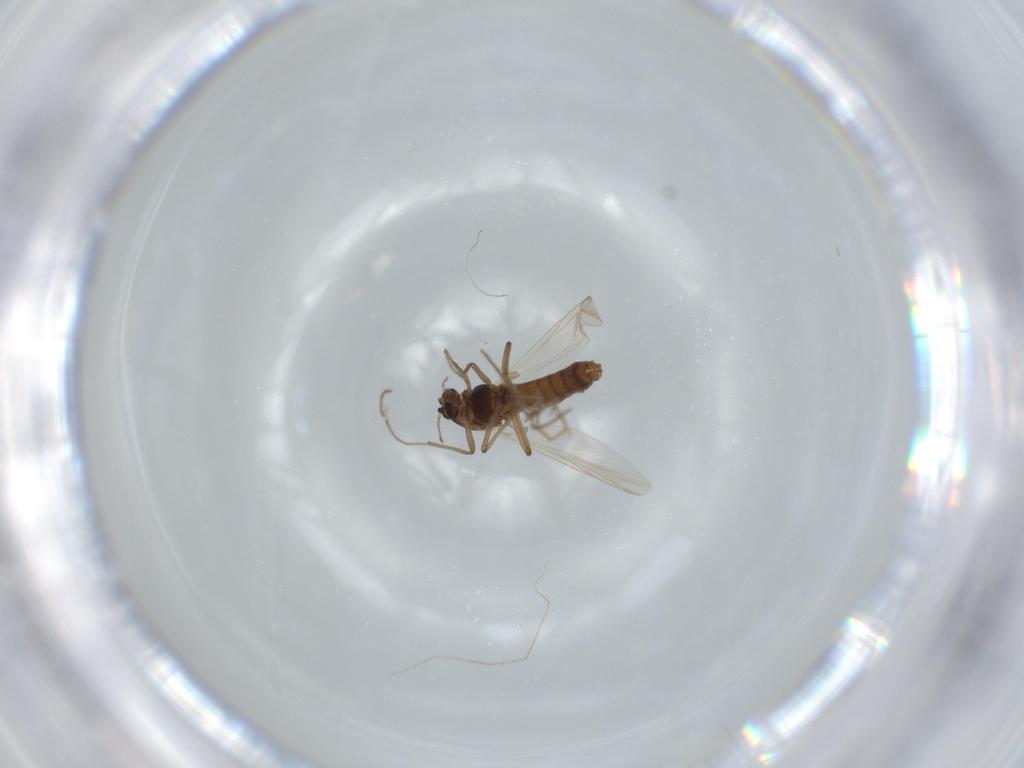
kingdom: Animalia
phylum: Arthropoda
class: Insecta
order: Diptera
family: Chironomidae
